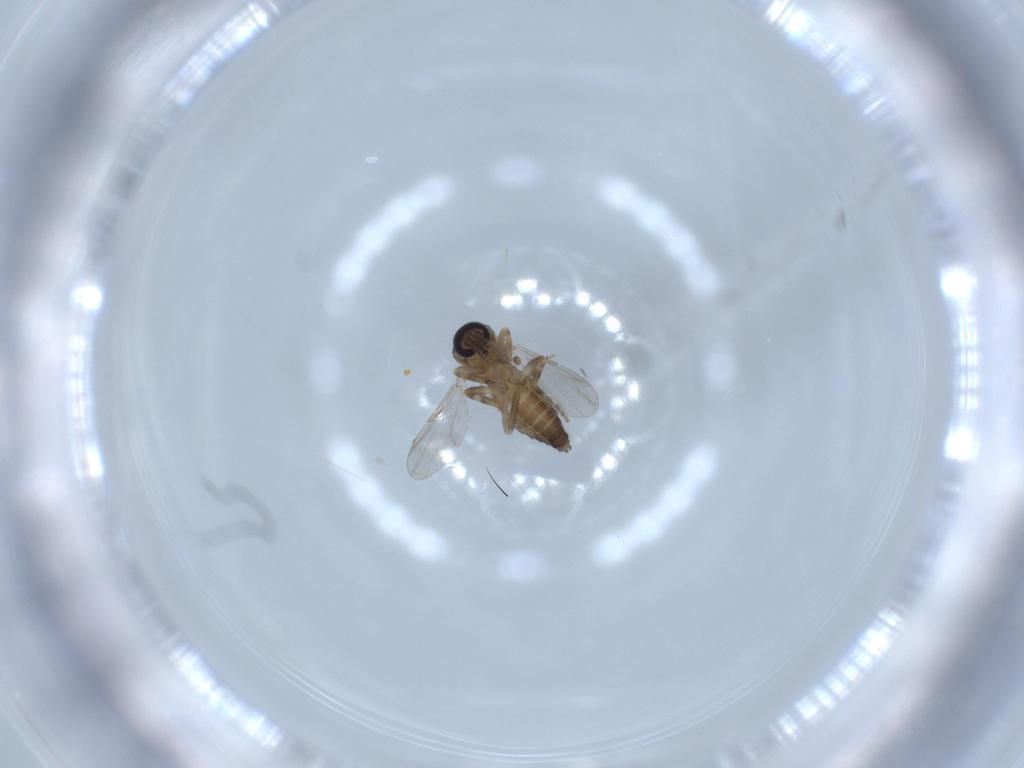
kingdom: Animalia
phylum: Arthropoda
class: Insecta
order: Diptera
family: Ceratopogonidae
